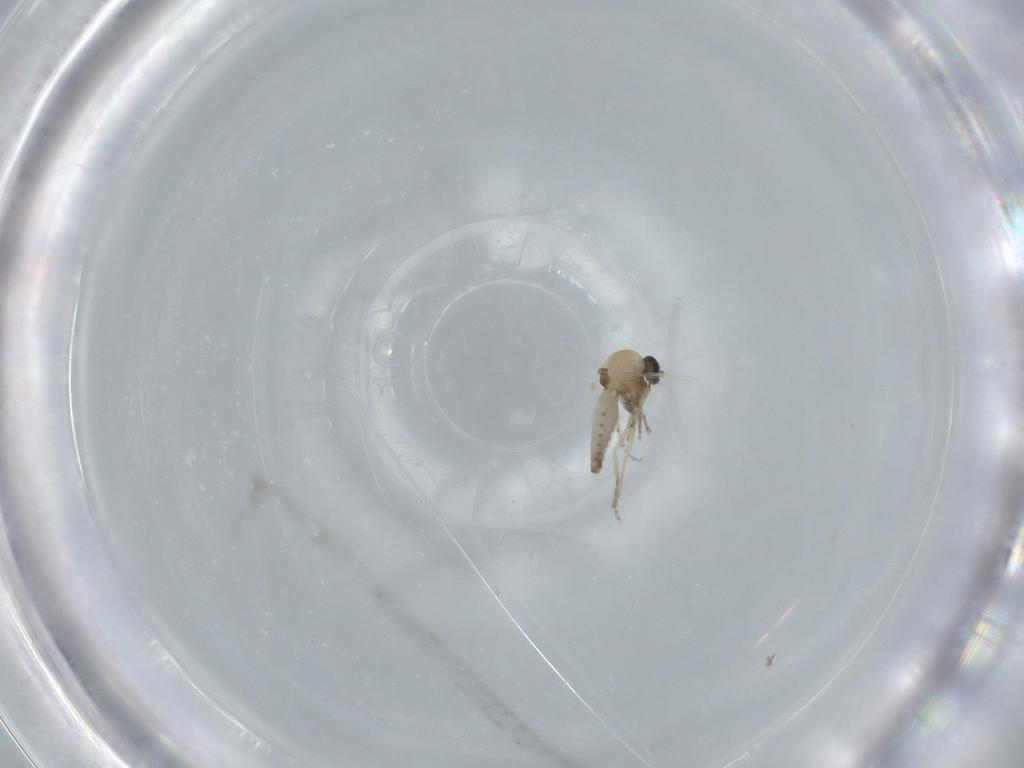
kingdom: Animalia
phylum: Arthropoda
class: Insecta
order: Diptera
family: Ceratopogonidae
